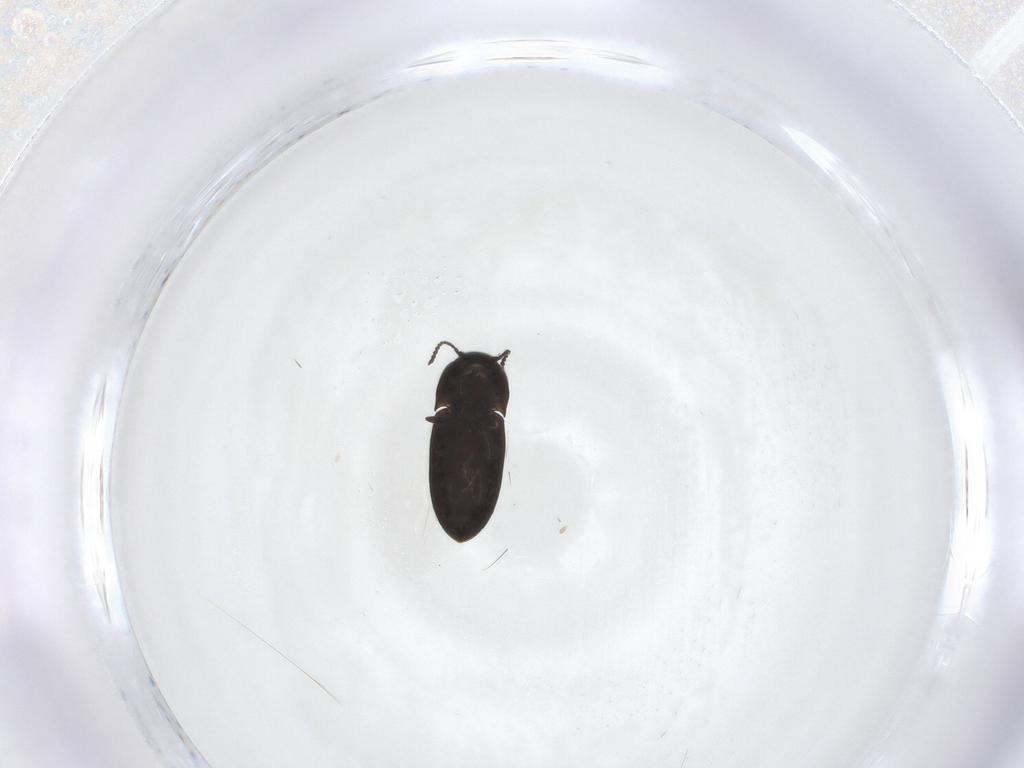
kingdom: Animalia
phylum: Arthropoda
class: Insecta
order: Coleoptera
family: Elateridae
